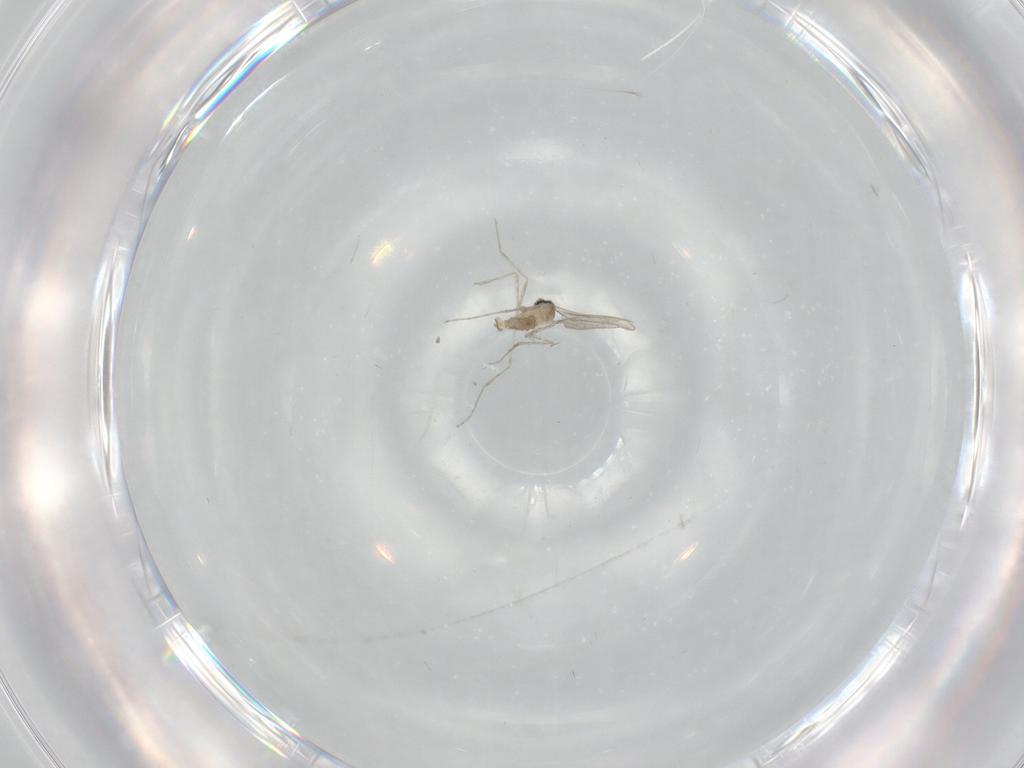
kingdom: Animalia
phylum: Arthropoda
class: Insecta
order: Diptera
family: Cecidomyiidae
